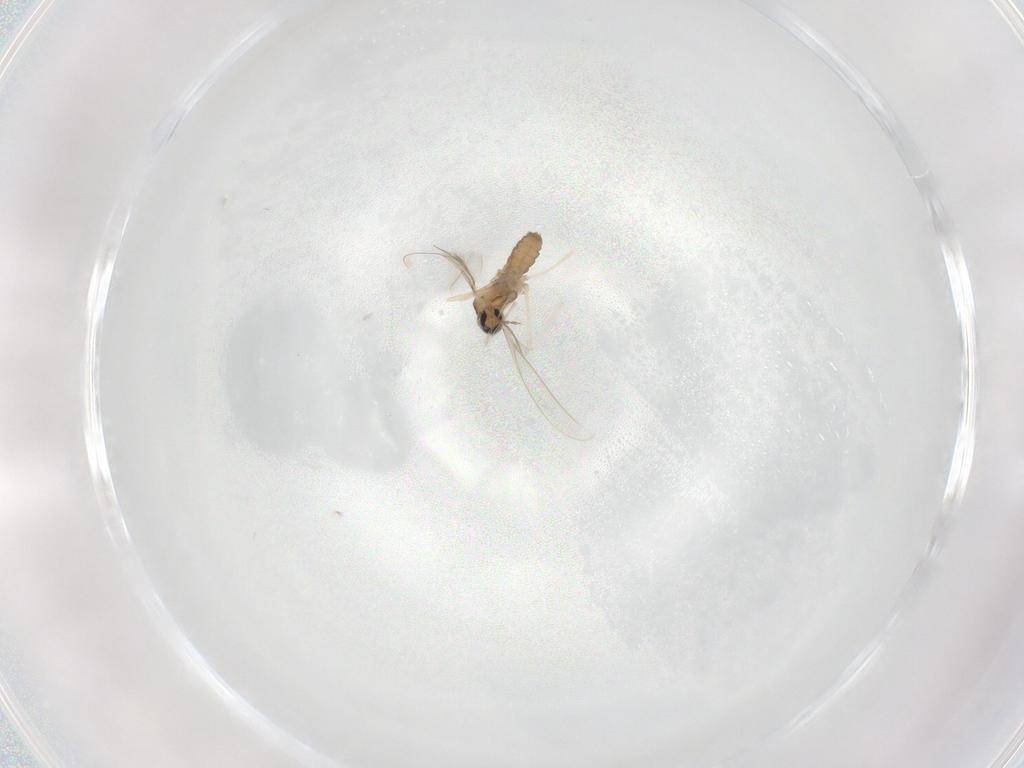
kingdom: Animalia
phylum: Arthropoda
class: Insecta
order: Diptera
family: Cecidomyiidae
